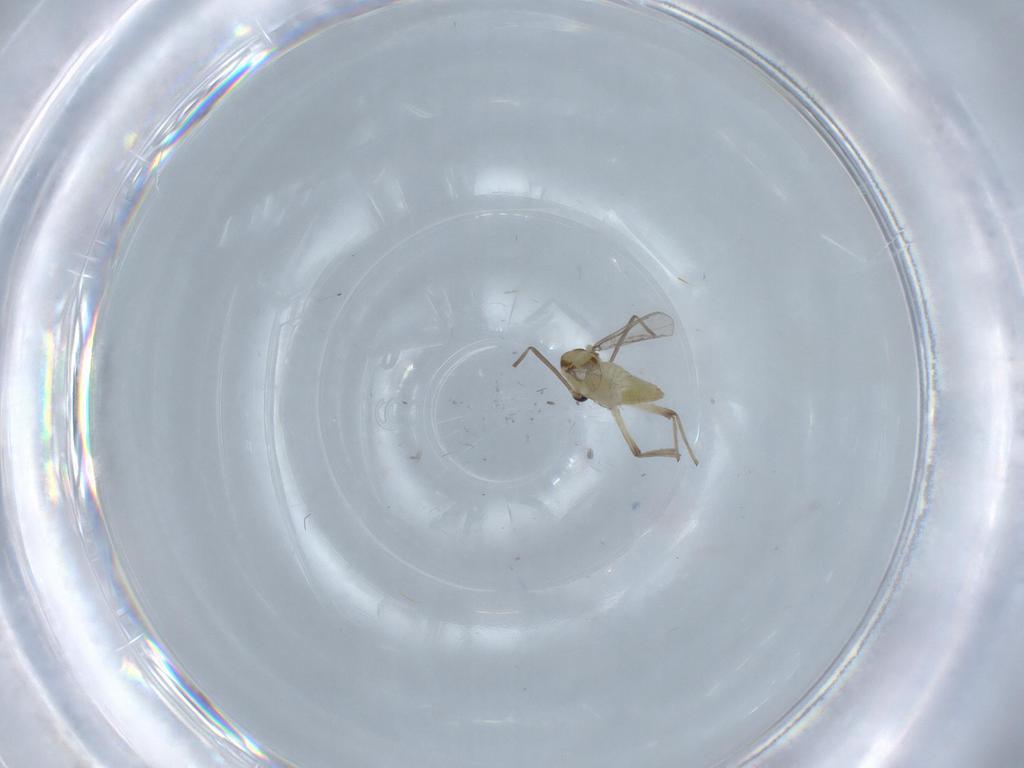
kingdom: Animalia
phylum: Arthropoda
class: Insecta
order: Diptera
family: Chironomidae
